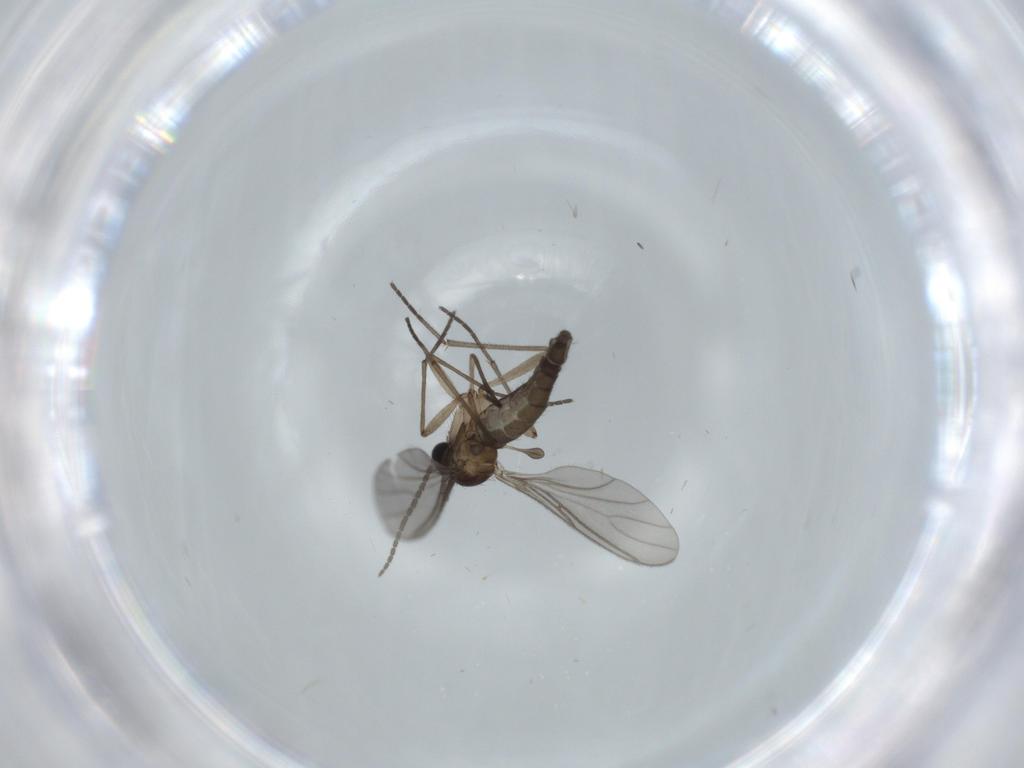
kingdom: Animalia
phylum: Arthropoda
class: Insecta
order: Diptera
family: Sciaridae
